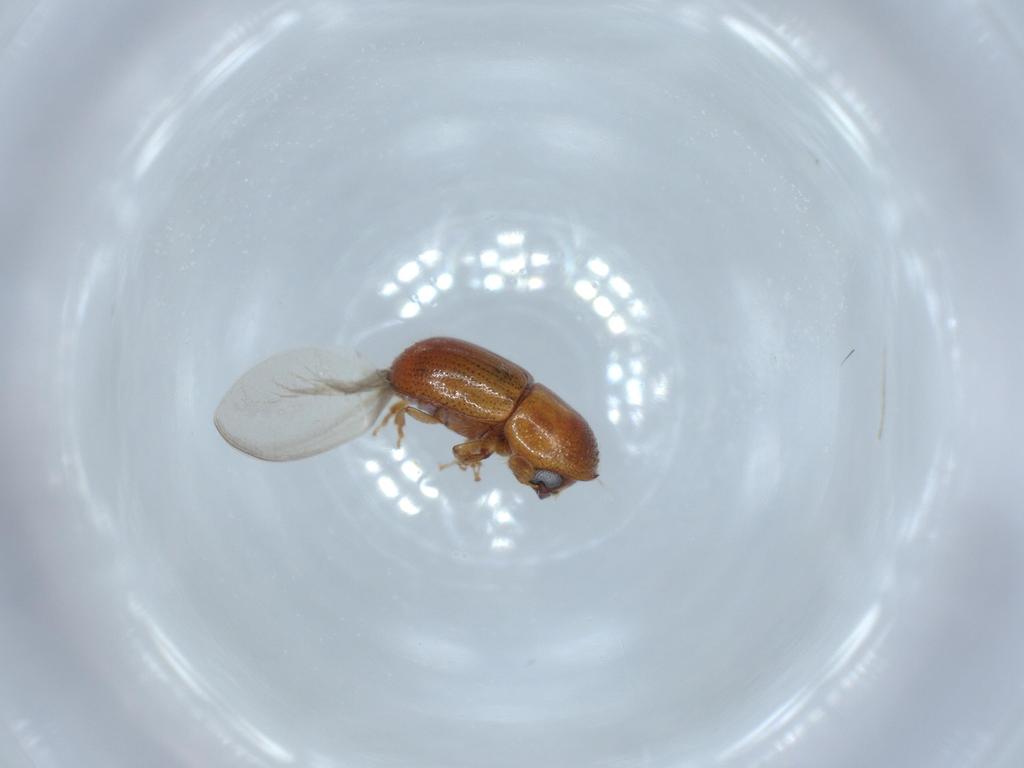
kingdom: Animalia
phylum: Arthropoda
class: Insecta
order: Coleoptera
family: Curculionidae
